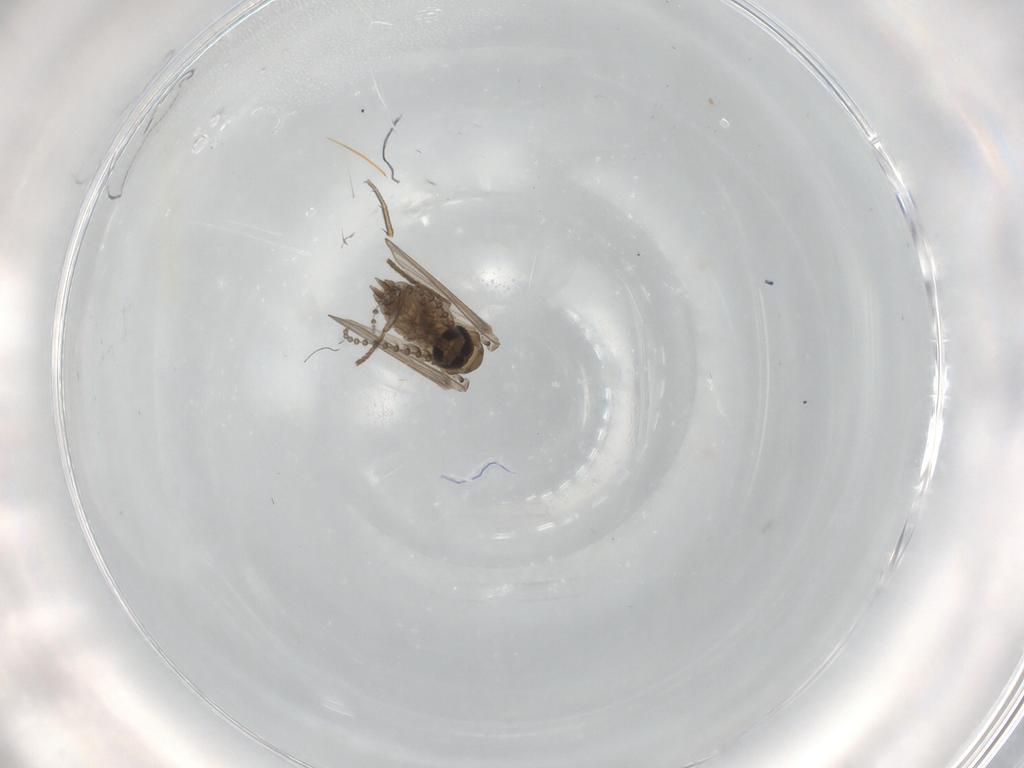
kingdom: Animalia
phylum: Arthropoda
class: Insecta
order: Diptera
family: Psychodidae
